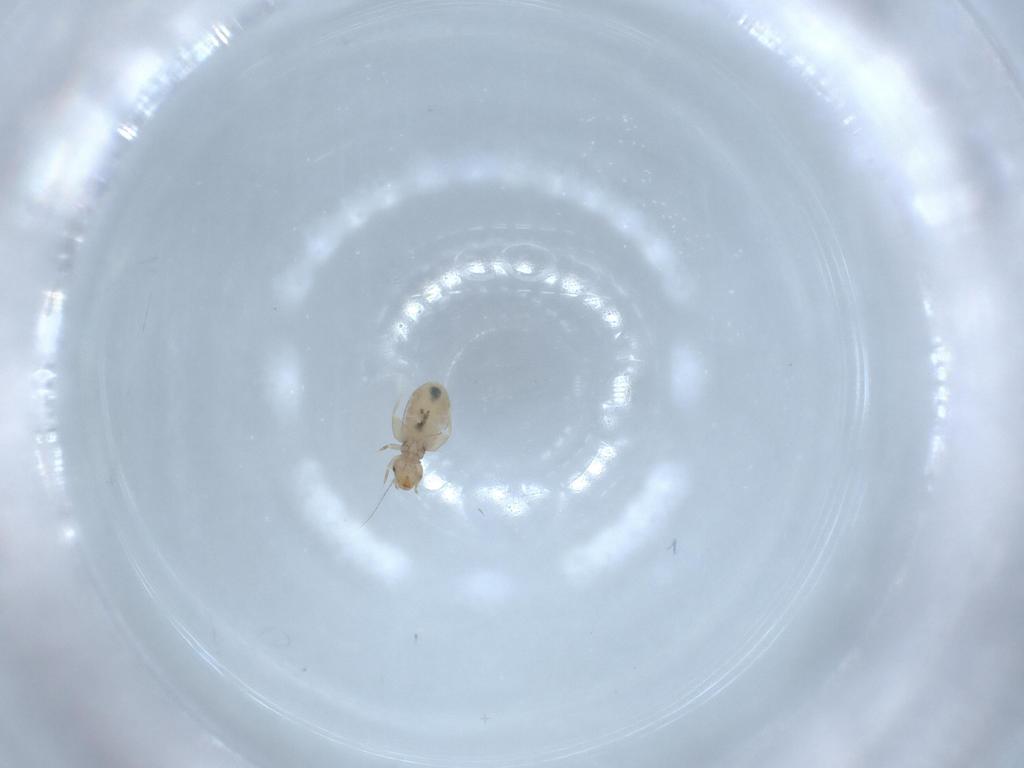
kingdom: Animalia
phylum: Arthropoda
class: Insecta
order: Psocodea
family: Liposcelididae
